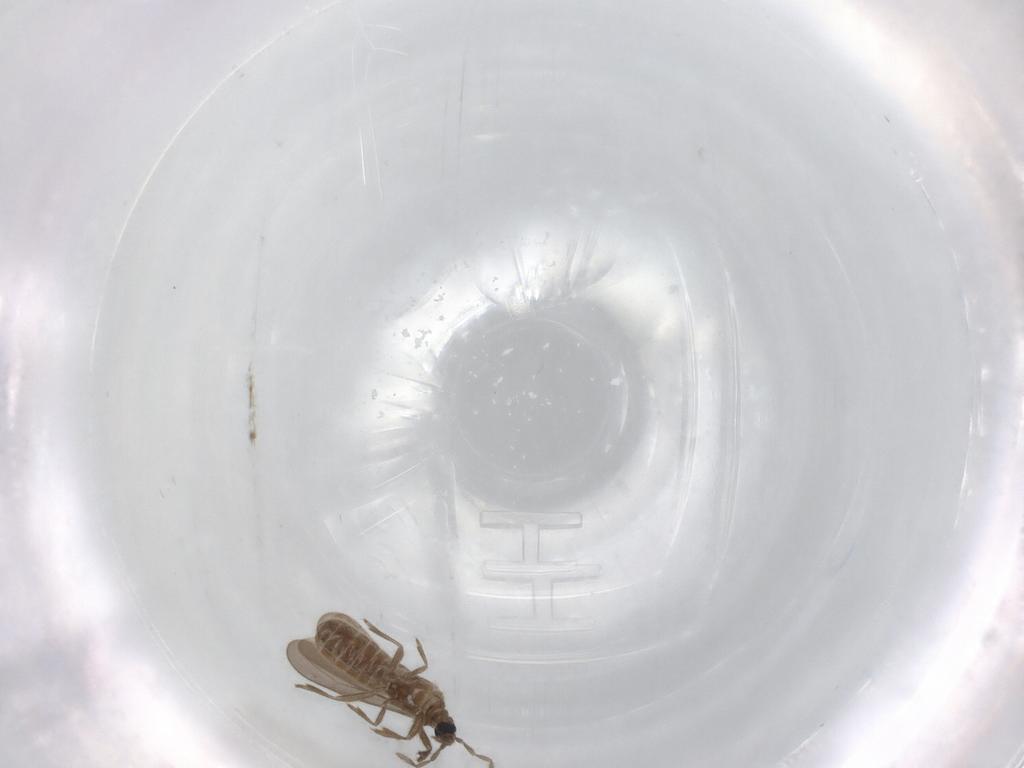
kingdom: Animalia
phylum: Arthropoda
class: Insecta
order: Hemiptera
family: Enicocephalidae
